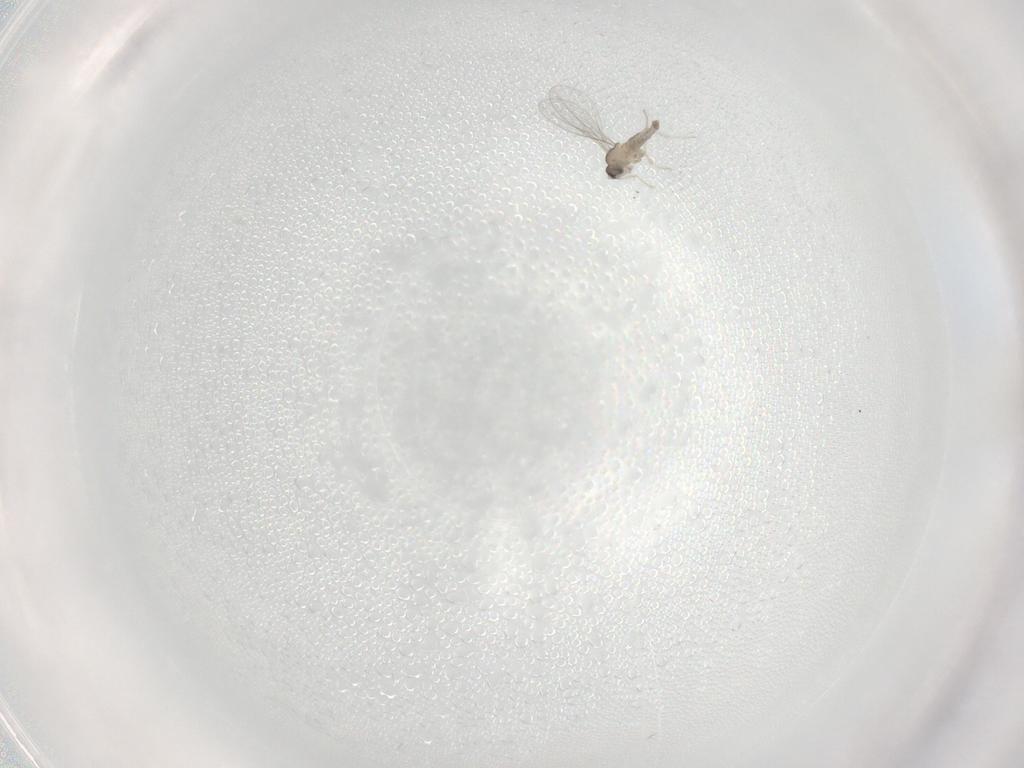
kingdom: Animalia
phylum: Arthropoda
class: Insecta
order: Diptera
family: Cecidomyiidae
